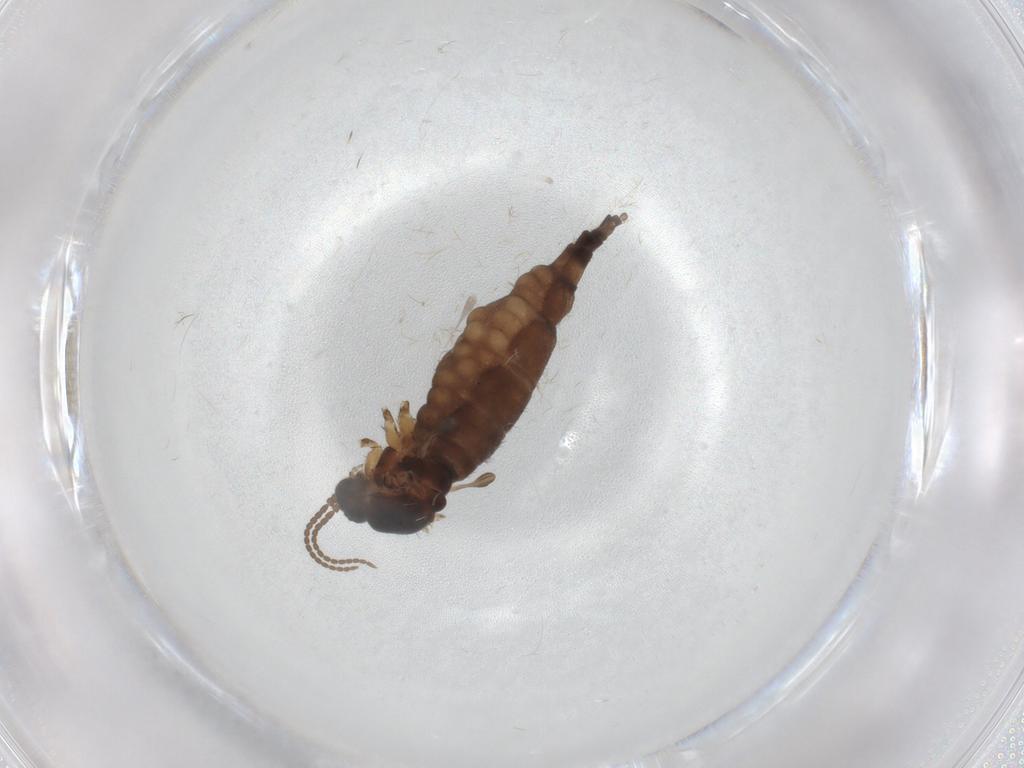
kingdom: Animalia
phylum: Arthropoda
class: Insecta
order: Diptera
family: Sciaridae
